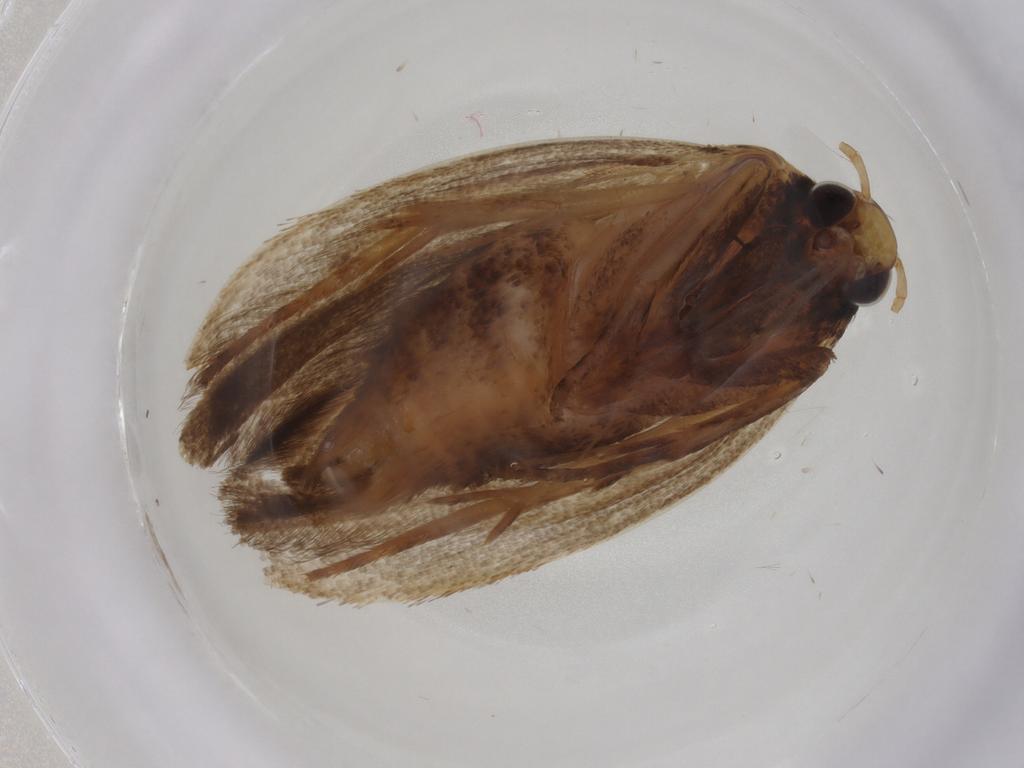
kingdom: Animalia
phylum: Arthropoda
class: Insecta
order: Lepidoptera
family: Gelechiidae
